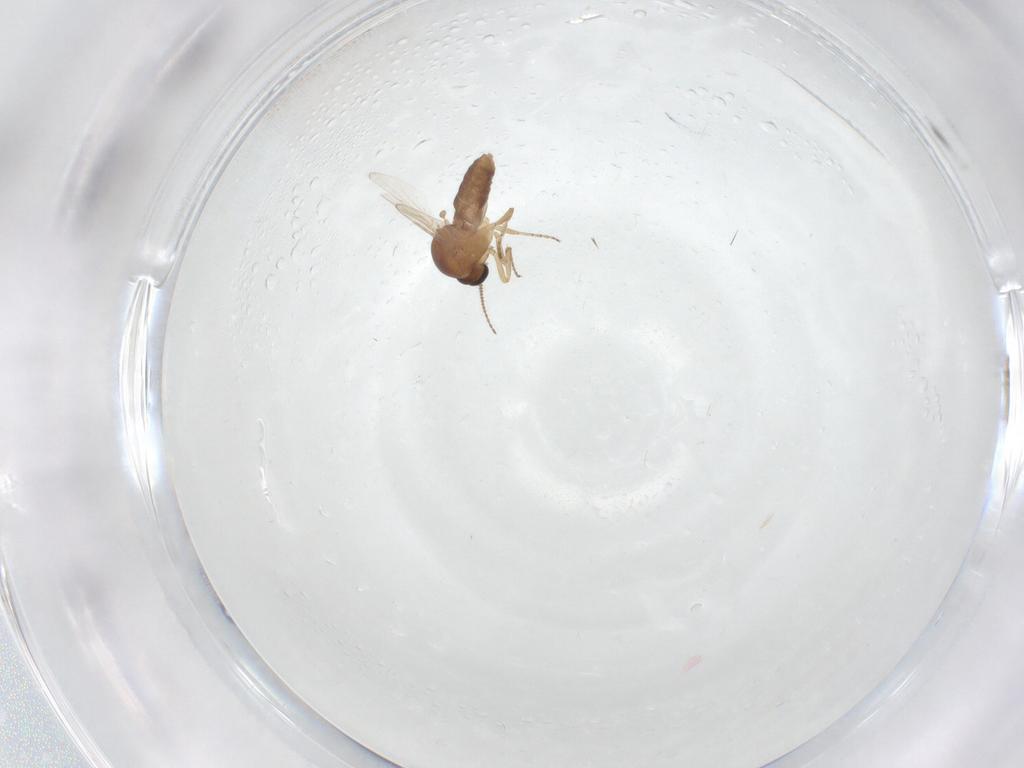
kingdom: Animalia
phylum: Arthropoda
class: Insecta
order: Diptera
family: Ceratopogonidae
